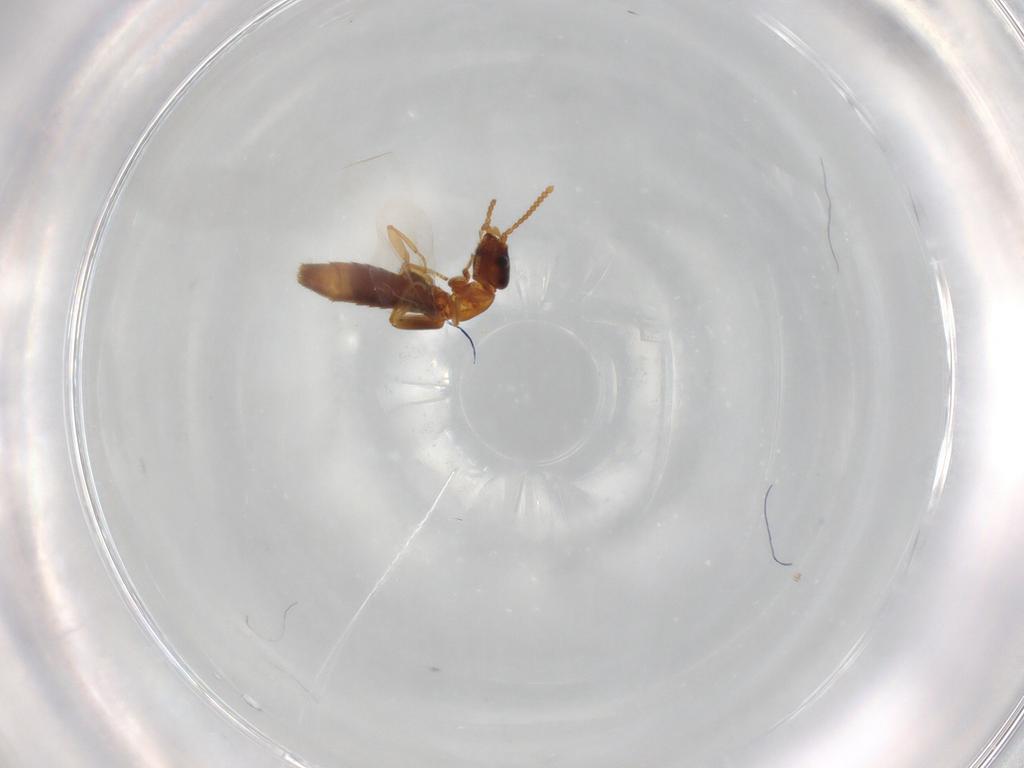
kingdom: Animalia
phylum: Arthropoda
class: Insecta
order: Coleoptera
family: Staphylinidae
